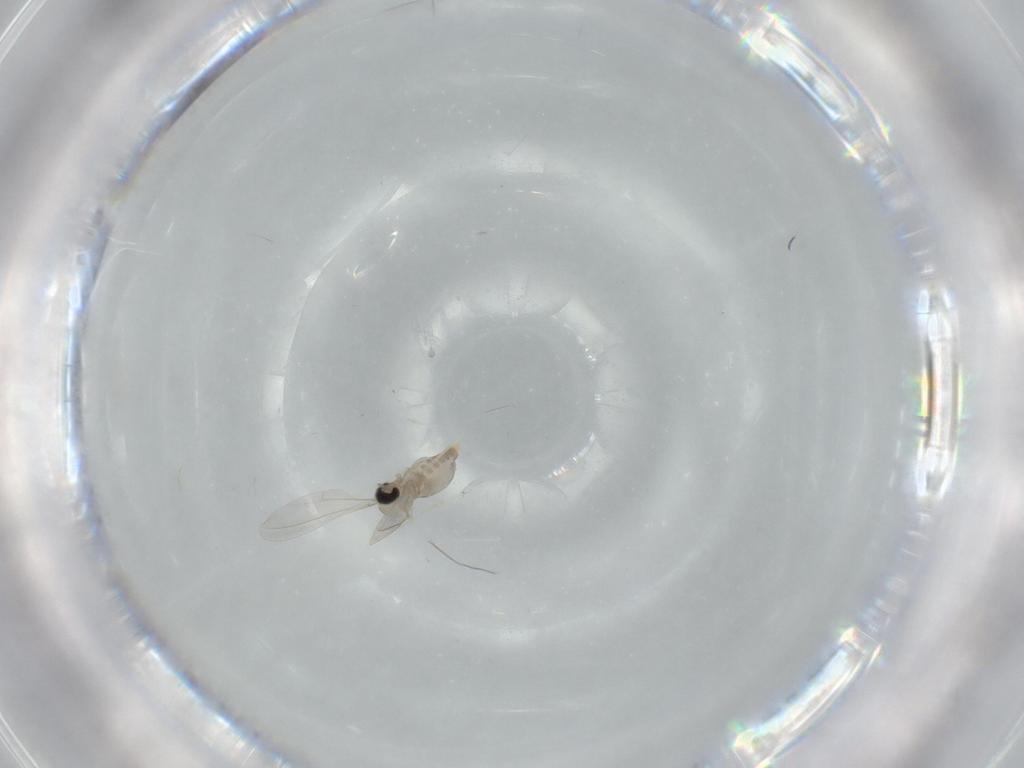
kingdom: Animalia
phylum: Arthropoda
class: Insecta
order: Diptera
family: Cecidomyiidae
